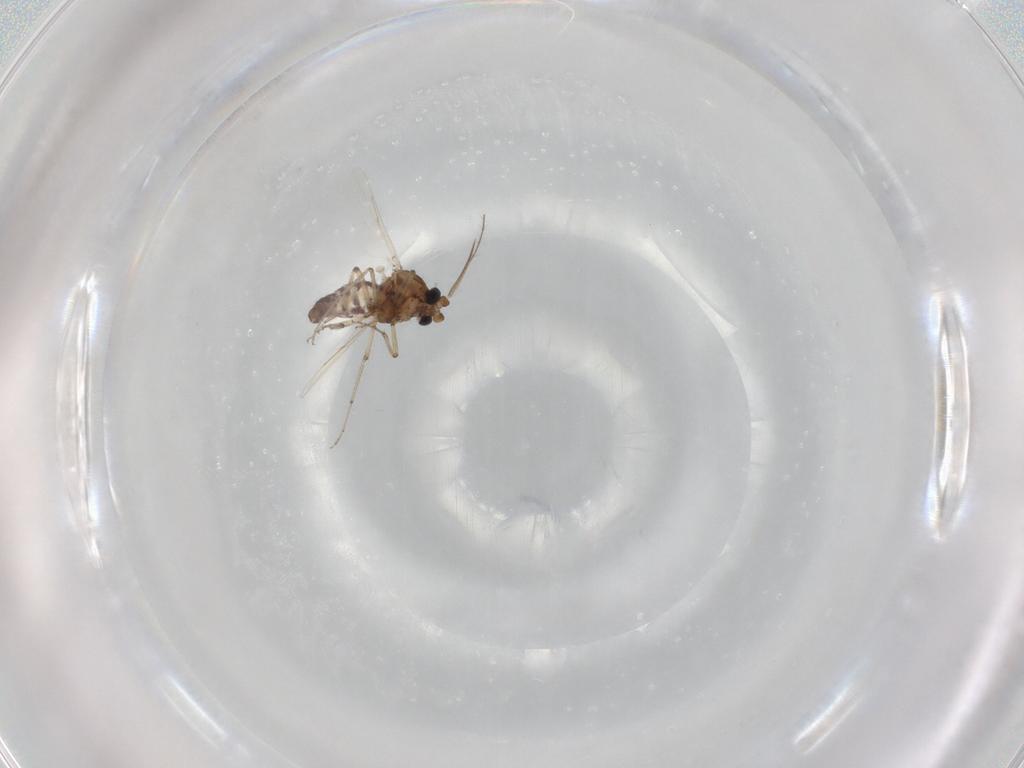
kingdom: Animalia
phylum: Arthropoda
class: Insecta
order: Diptera
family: Ceratopogonidae
